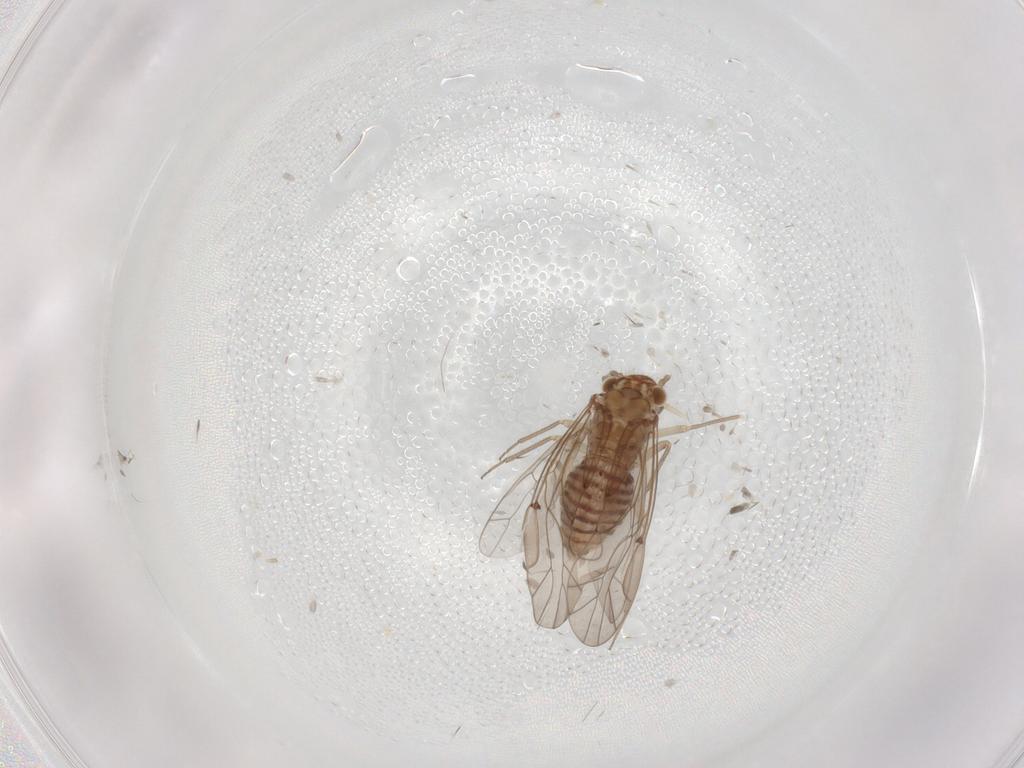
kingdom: Animalia
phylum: Arthropoda
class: Insecta
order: Psocodea
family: Lachesillidae
